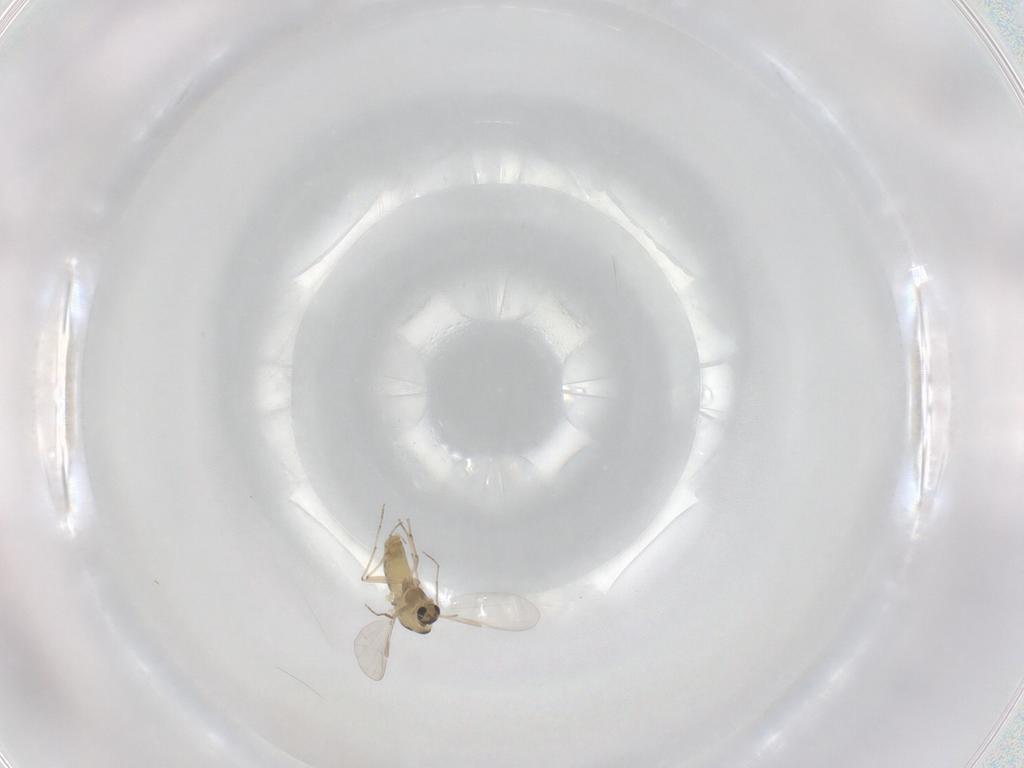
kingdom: Animalia
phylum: Arthropoda
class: Insecta
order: Diptera
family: Chironomidae
